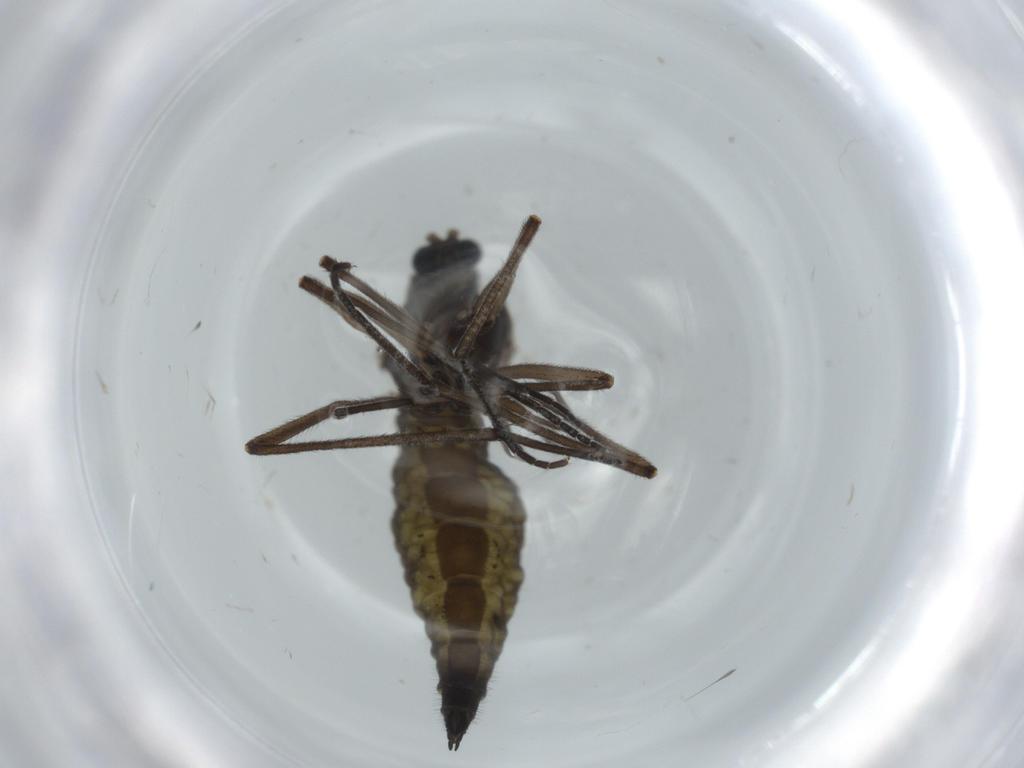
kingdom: Animalia
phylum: Arthropoda
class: Insecta
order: Diptera
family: Sciaridae
